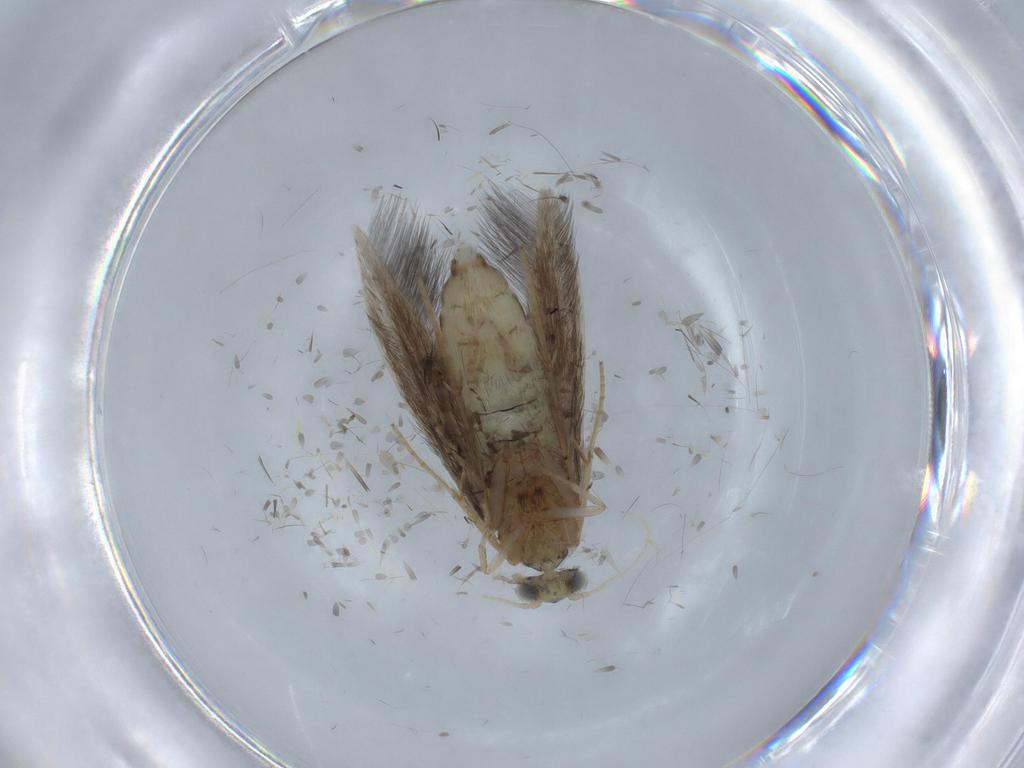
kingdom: Animalia
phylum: Arthropoda
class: Insecta
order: Trichoptera
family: Hydroptilidae
